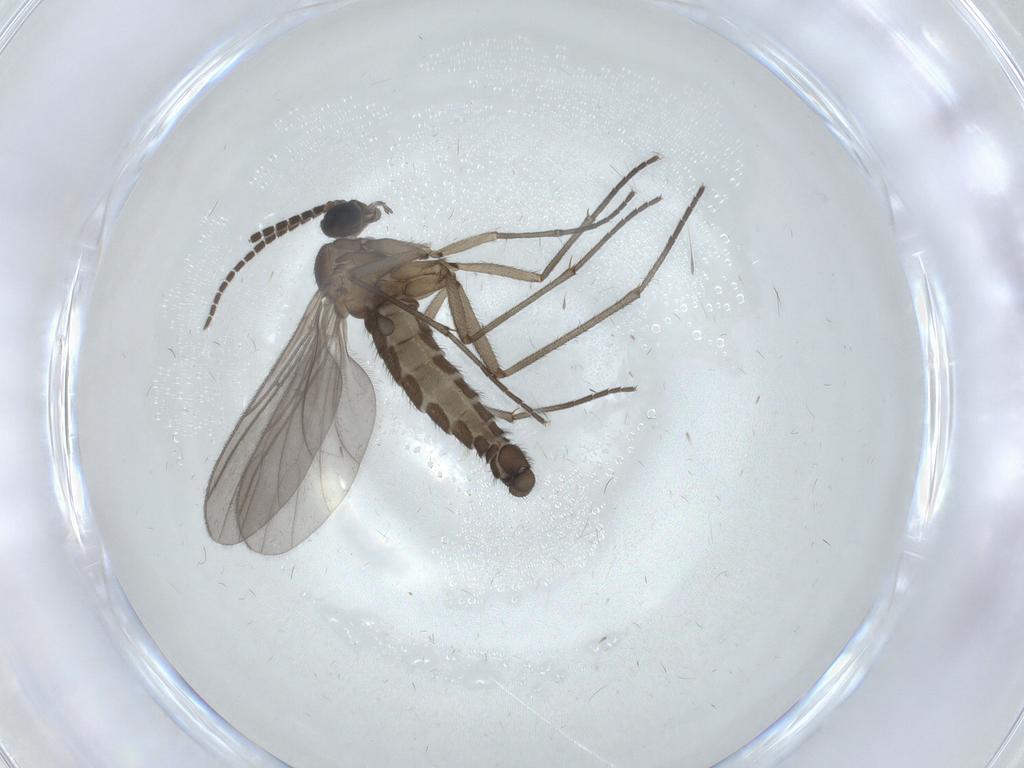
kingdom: Animalia
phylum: Arthropoda
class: Insecta
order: Diptera
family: Sciaridae
